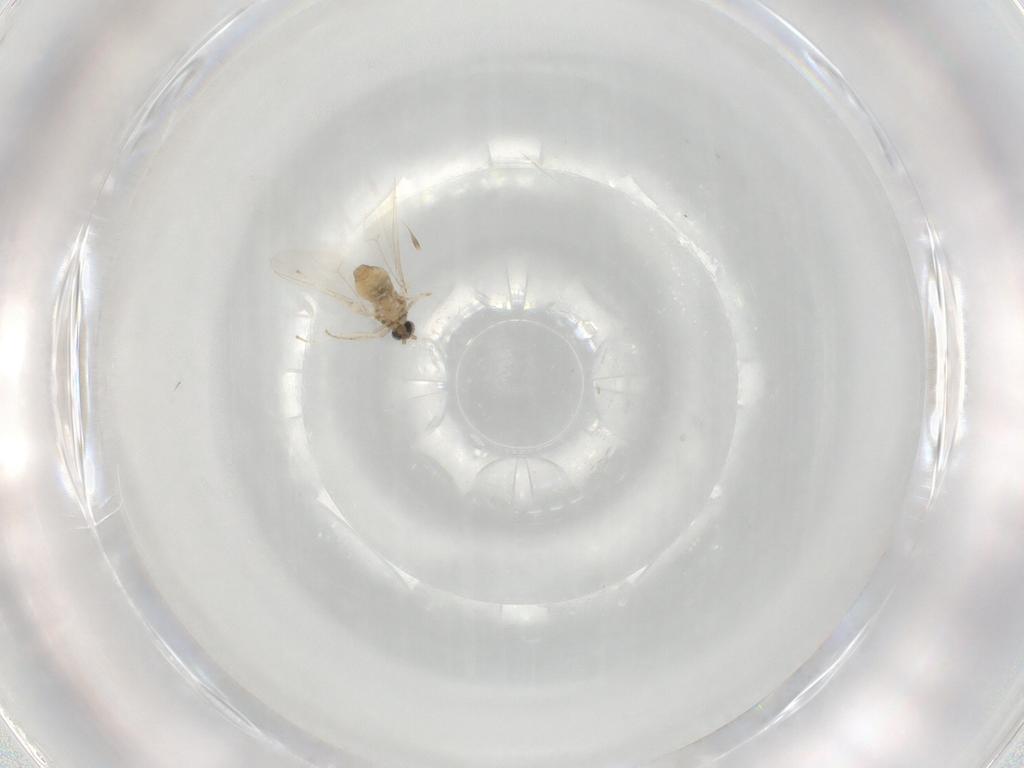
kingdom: Animalia
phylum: Arthropoda
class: Insecta
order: Diptera
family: Cecidomyiidae
